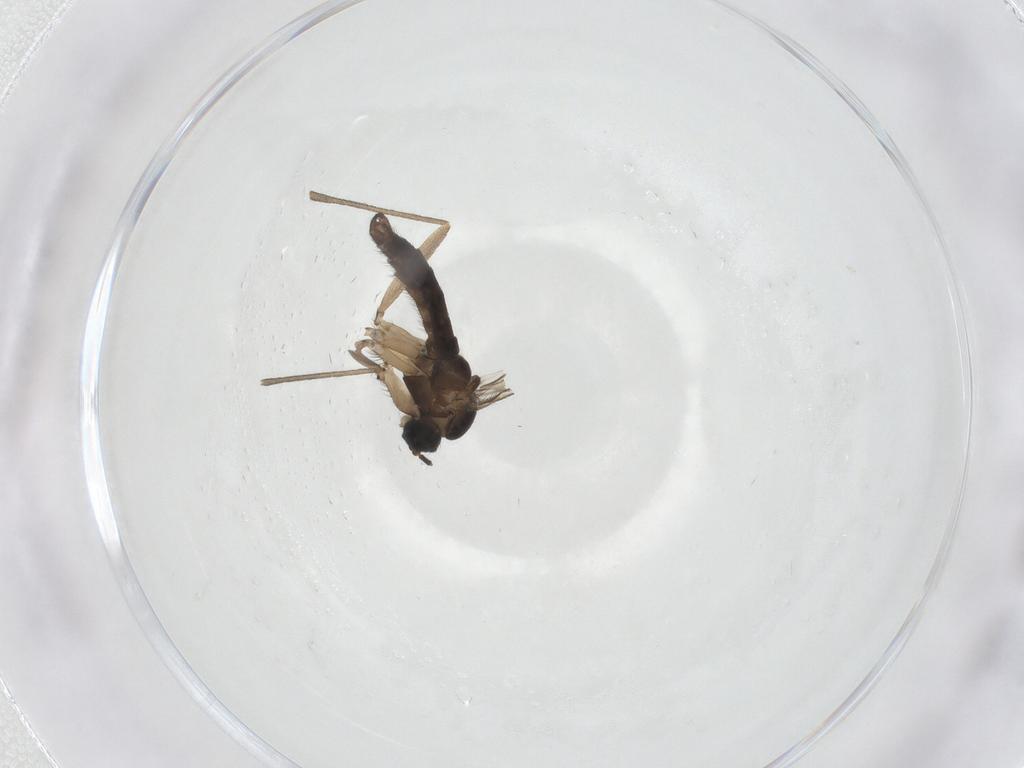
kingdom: Animalia
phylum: Arthropoda
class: Insecta
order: Diptera
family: Sciaridae
